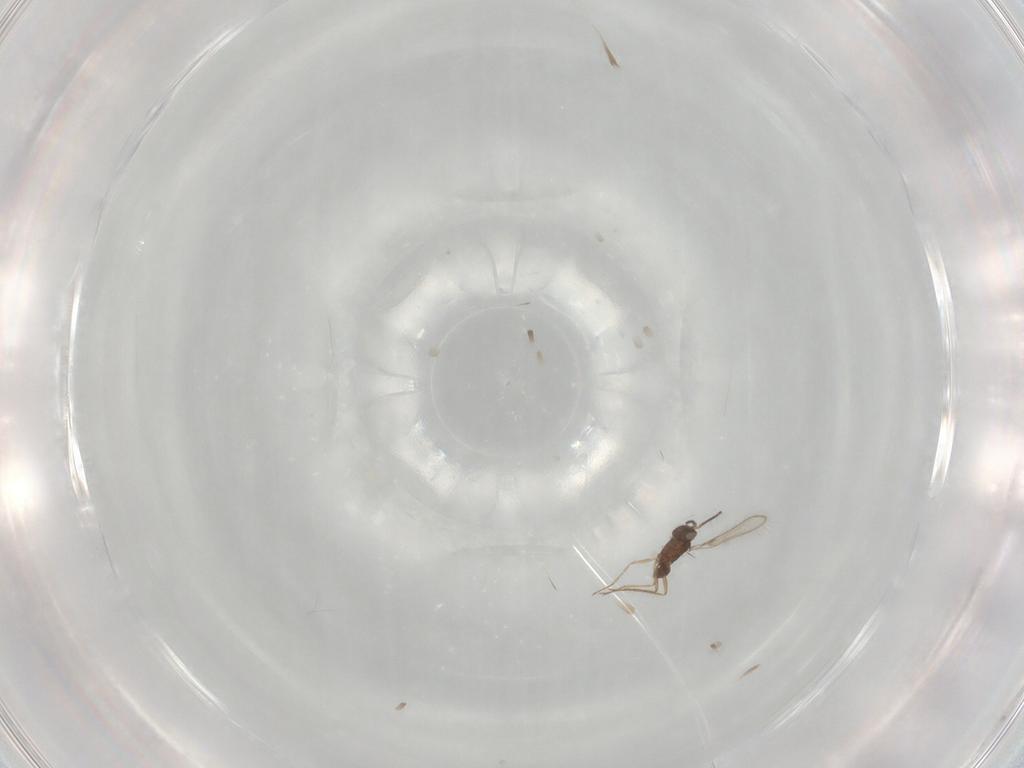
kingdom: Animalia
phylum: Arthropoda
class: Insecta
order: Hymenoptera
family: Tenthredinidae
